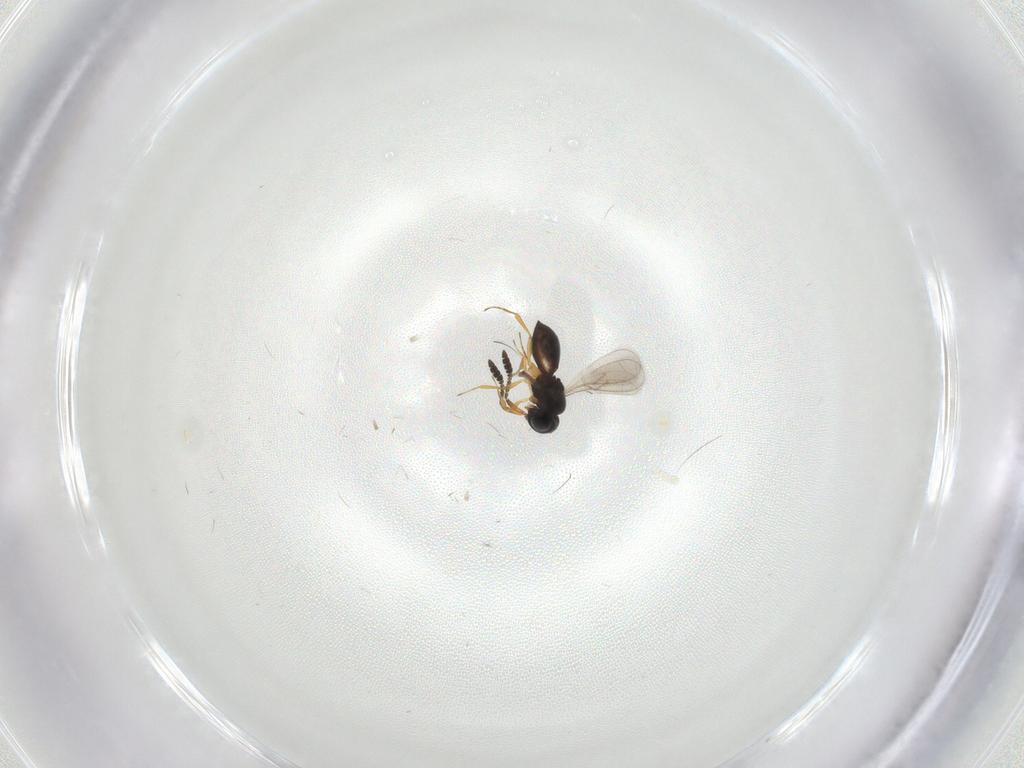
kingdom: Animalia
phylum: Arthropoda
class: Insecta
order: Hymenoptera
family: Scelionidae
